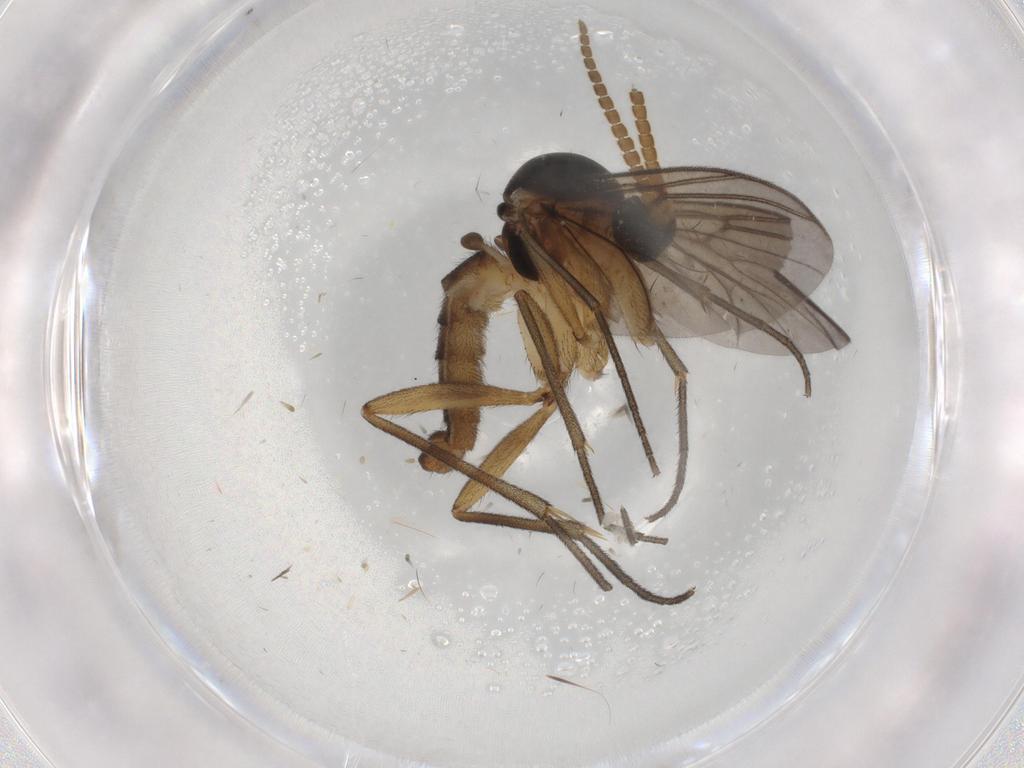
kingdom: Animalia
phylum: Arthropoda
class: Insecta
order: Diptera
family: Mycetophilidae
